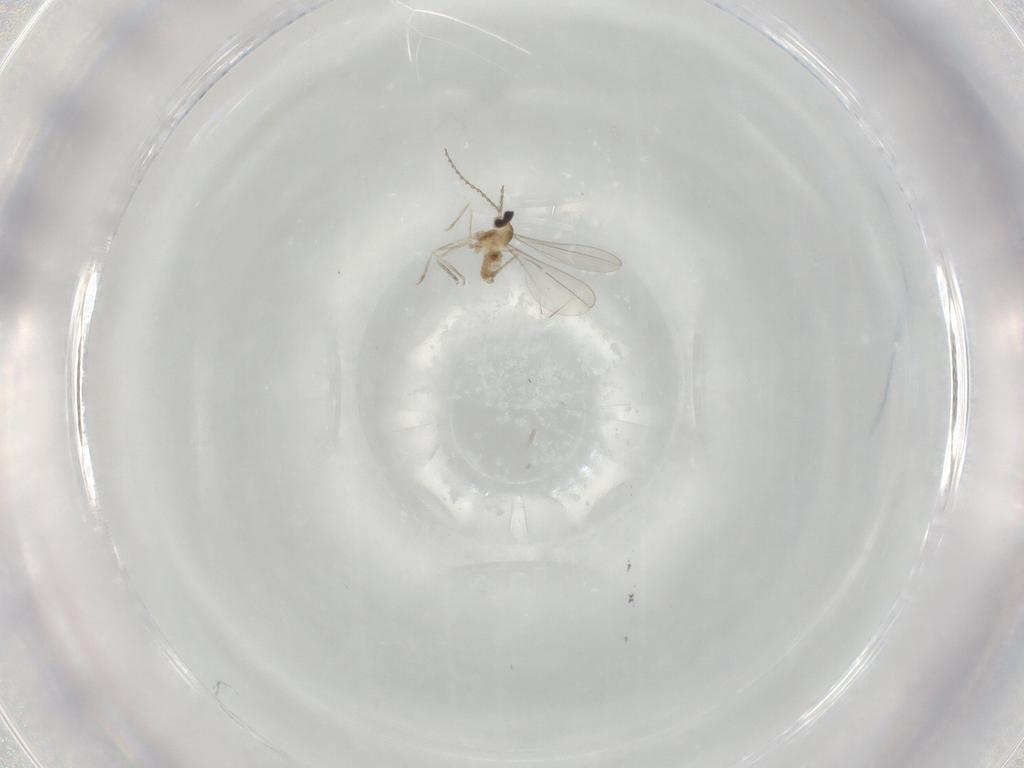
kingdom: Animalia
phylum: Arthropoda
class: Insecta
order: Diptera
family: Cecidomyiidae
